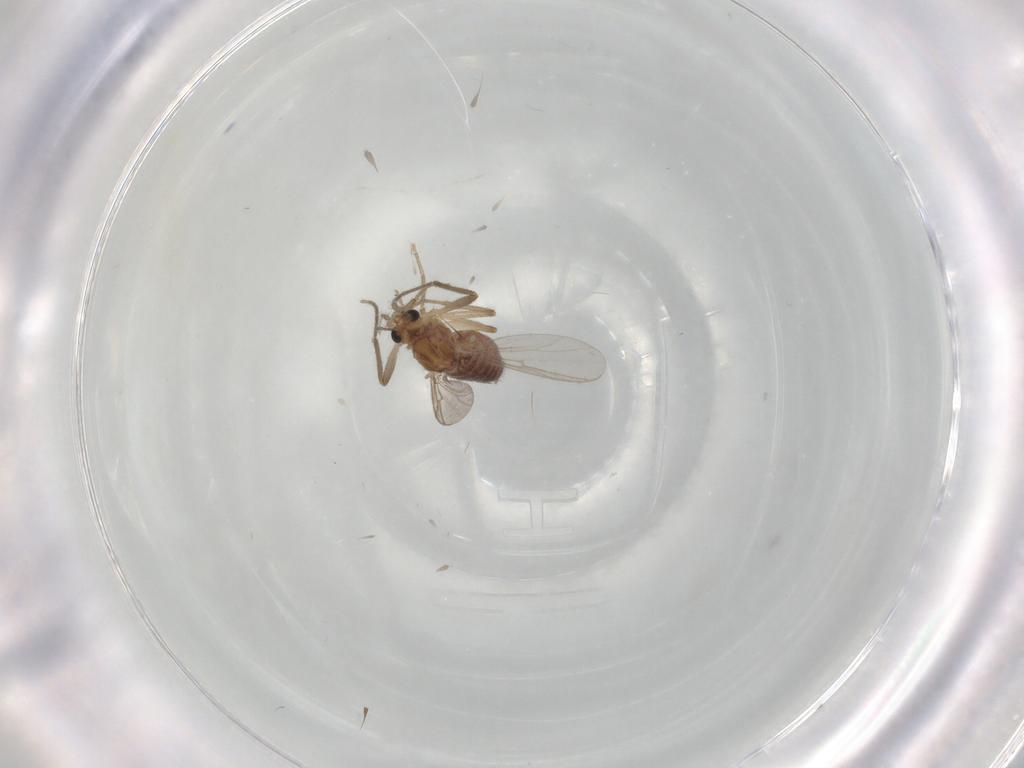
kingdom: Animalia
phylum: Arthropoda
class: Insecta
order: Diptera
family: Chironomidae
